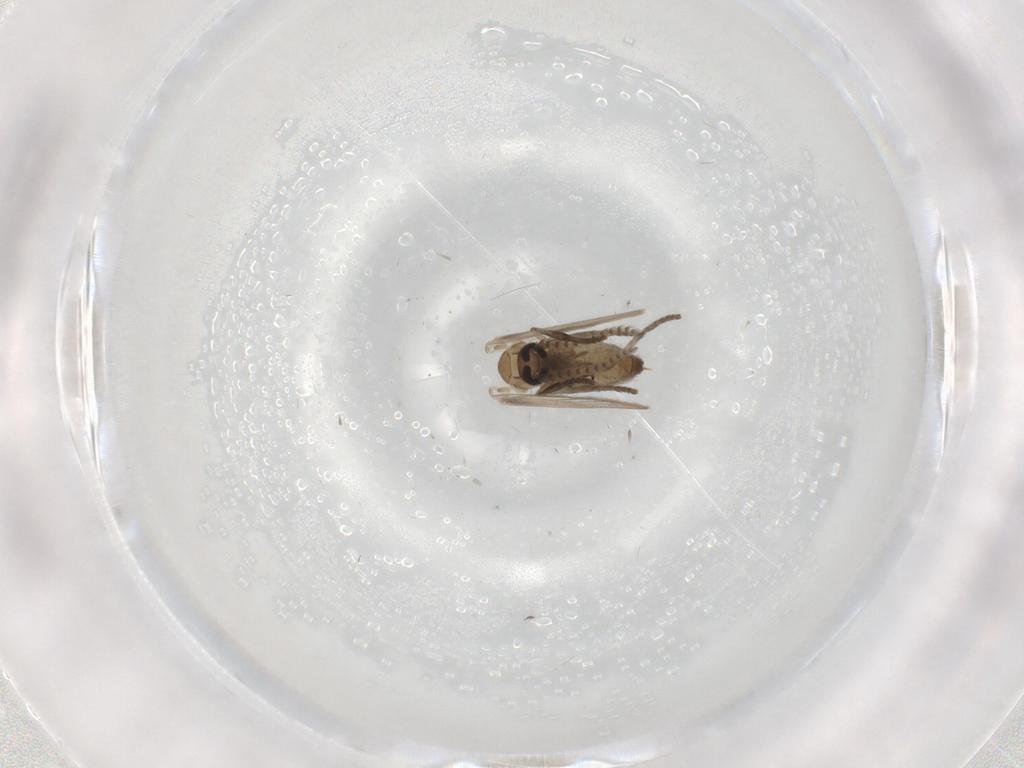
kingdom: Animalia
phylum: Arthropoda
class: Insecta
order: Diptera
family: Psychodidae
